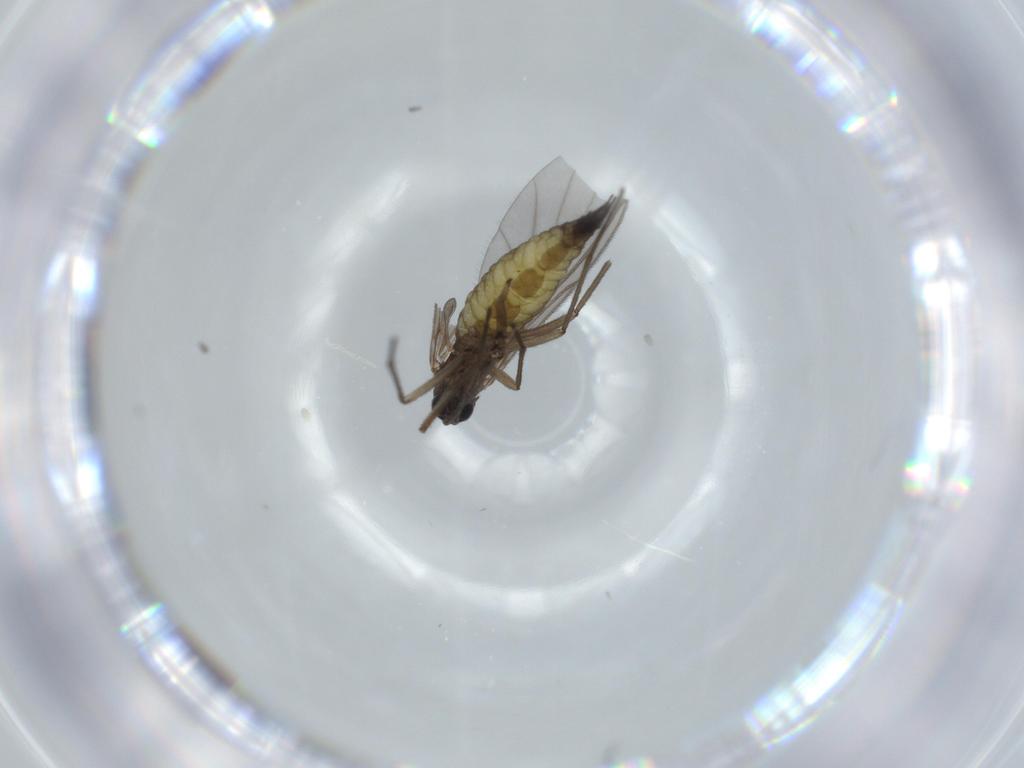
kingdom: Animalia
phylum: Arthropoda
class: Insecta
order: Diptera
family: Sciaridae
